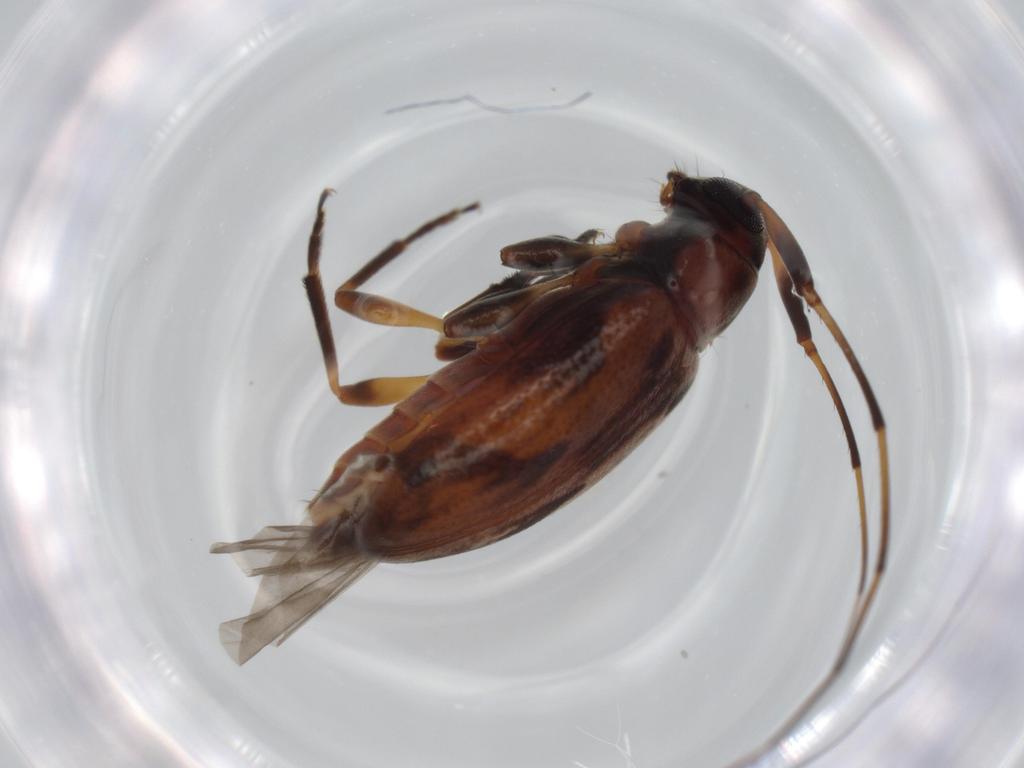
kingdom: Animalia
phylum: Arthropoda
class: Insecta
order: Coleoptera
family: Cerambycidae
